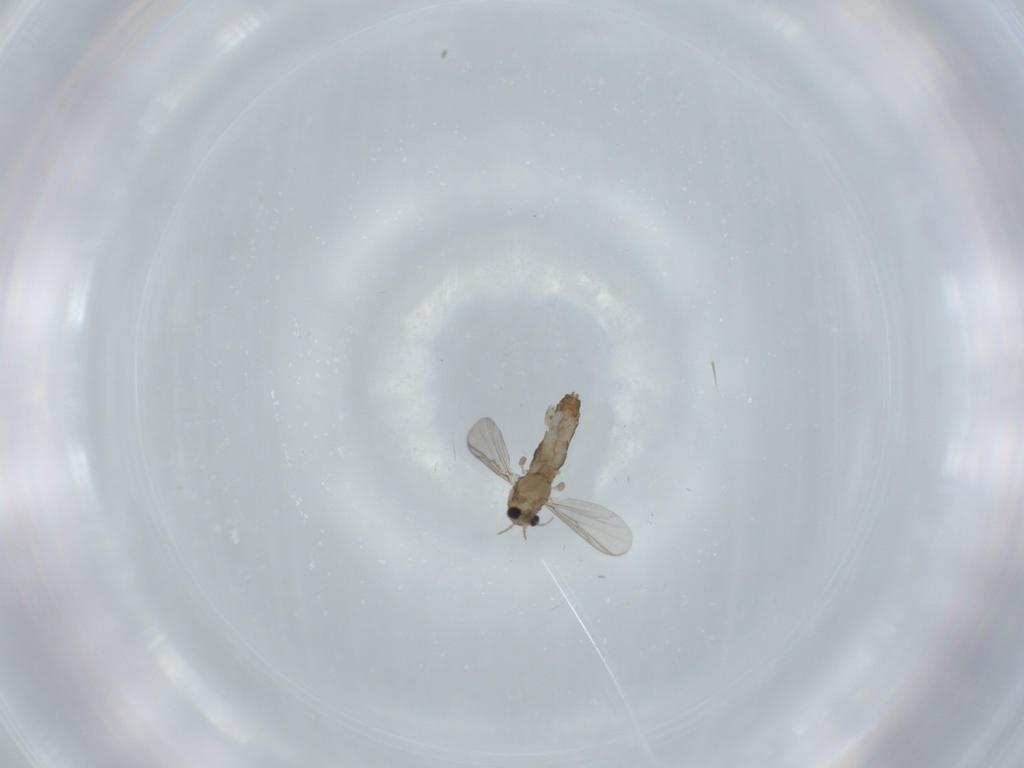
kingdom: Animalia
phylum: Arthropoda
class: Insecta
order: Diptera
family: Chironomidae
